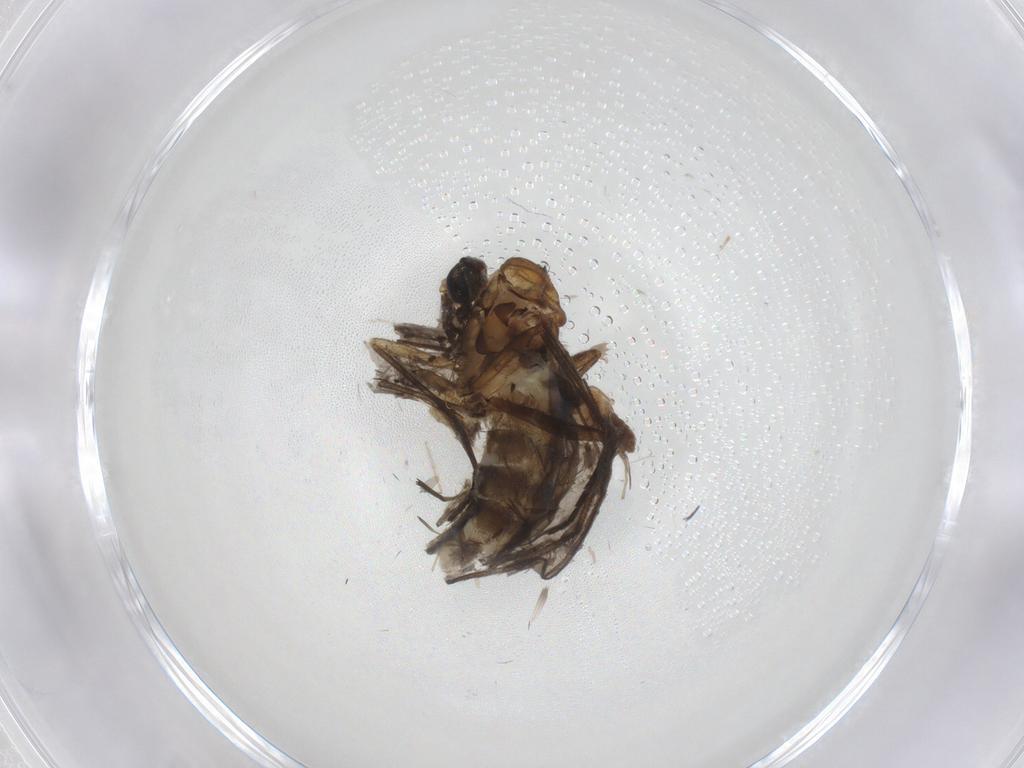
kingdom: Animalia
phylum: Arthropoda
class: Insecta
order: Diptera
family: Sciaridae
